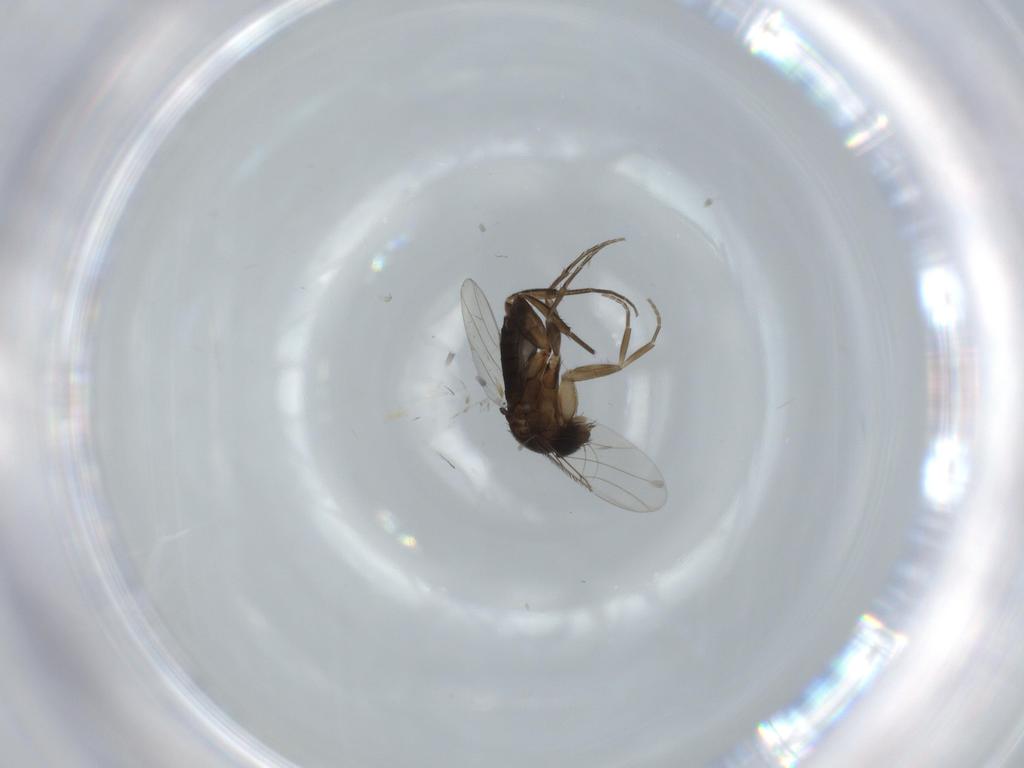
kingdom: Animalia
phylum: Arthropoda
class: Insecta
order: Diptera
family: Phoridae
